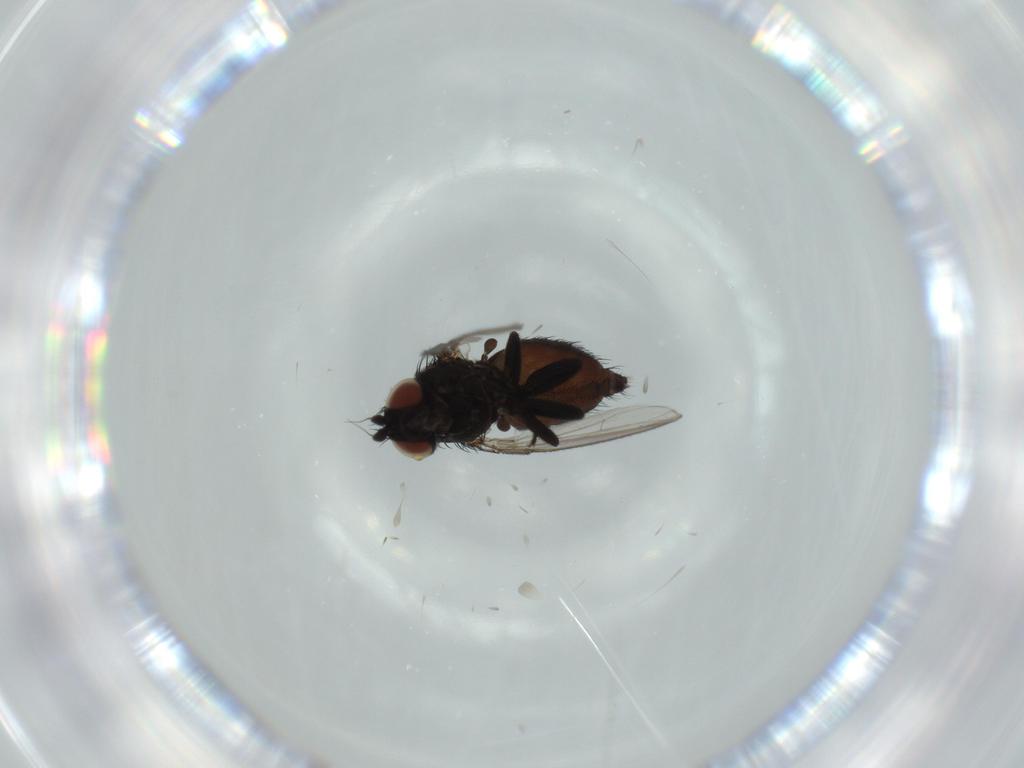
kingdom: Animalia
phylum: Arthropoda
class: Insecta
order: Diptera
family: Milichiidae
